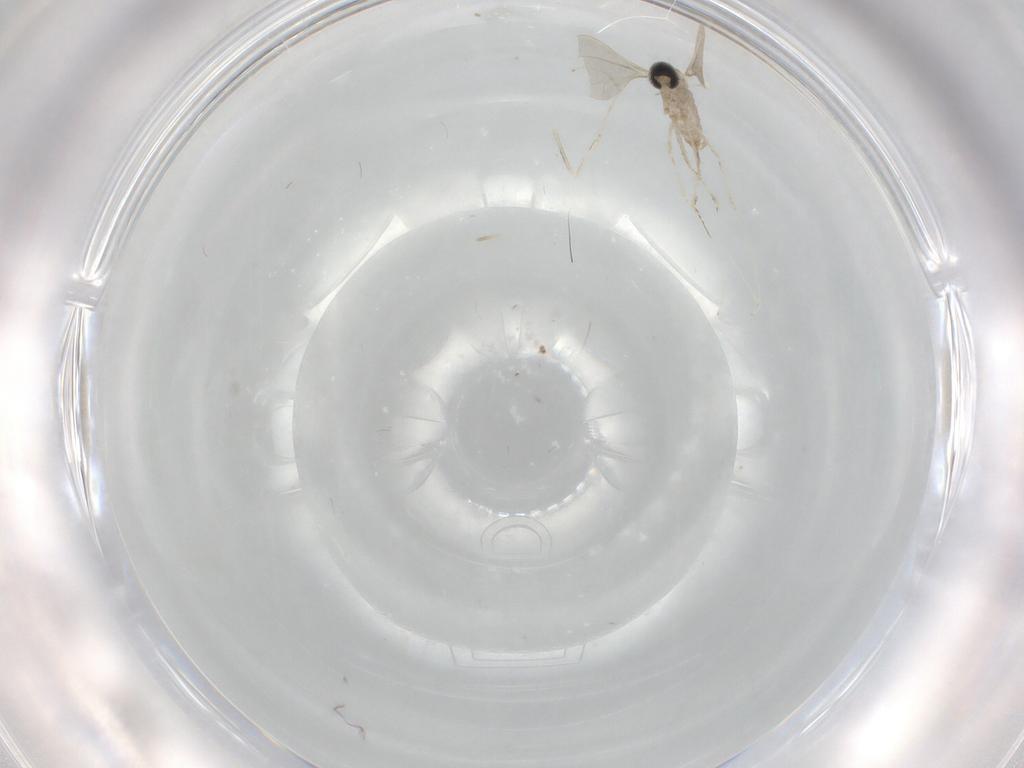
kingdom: Animalia
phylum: Arthropoda
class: Insecta
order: Diptera
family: Cecidomyiidae
